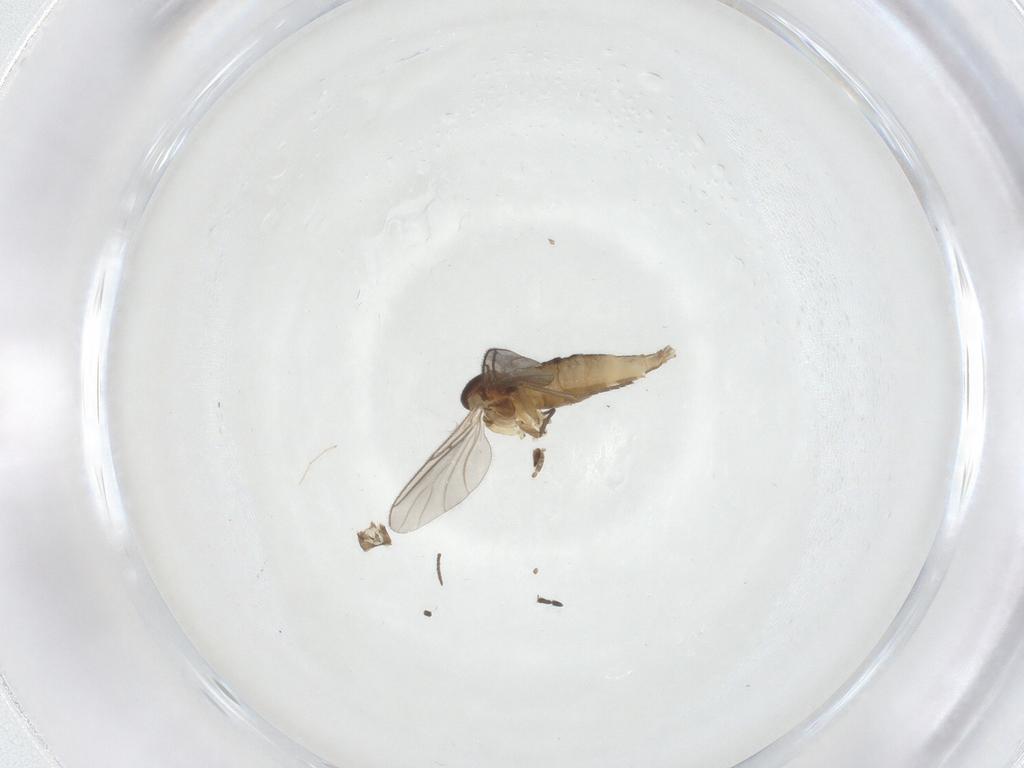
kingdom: Animalia
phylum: Arthropoda
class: Insecta
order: Diptera
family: Sciaridae
